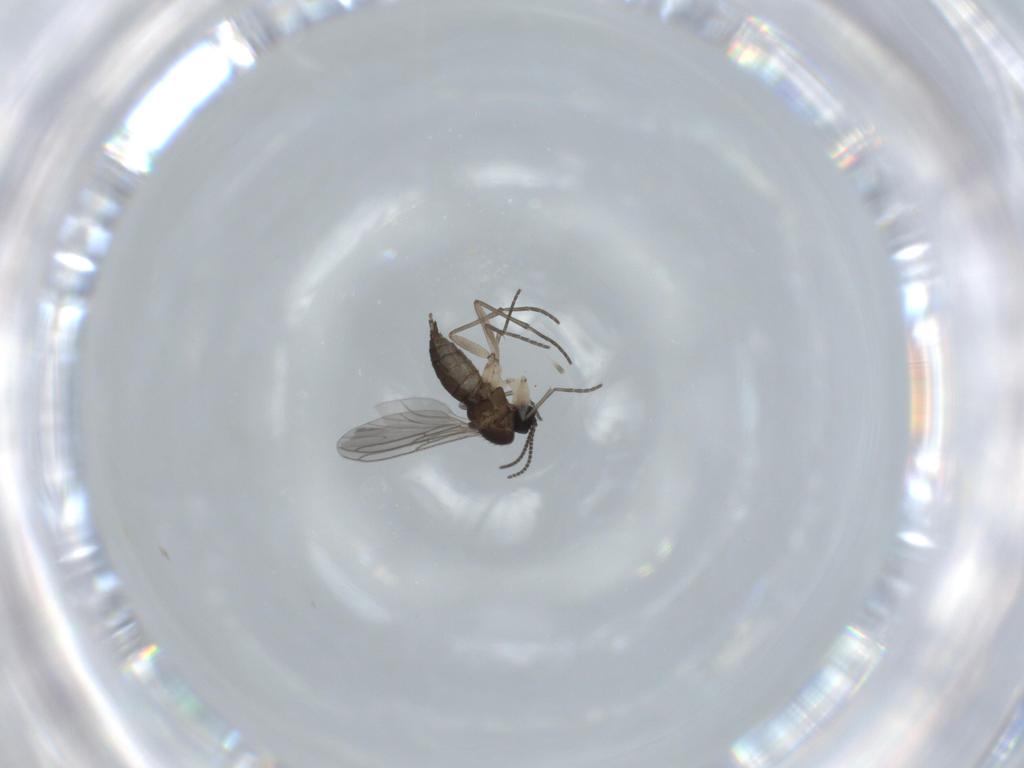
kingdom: Animalia
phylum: Arthropoda
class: Insecta
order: Diptera
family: Sciaridae
